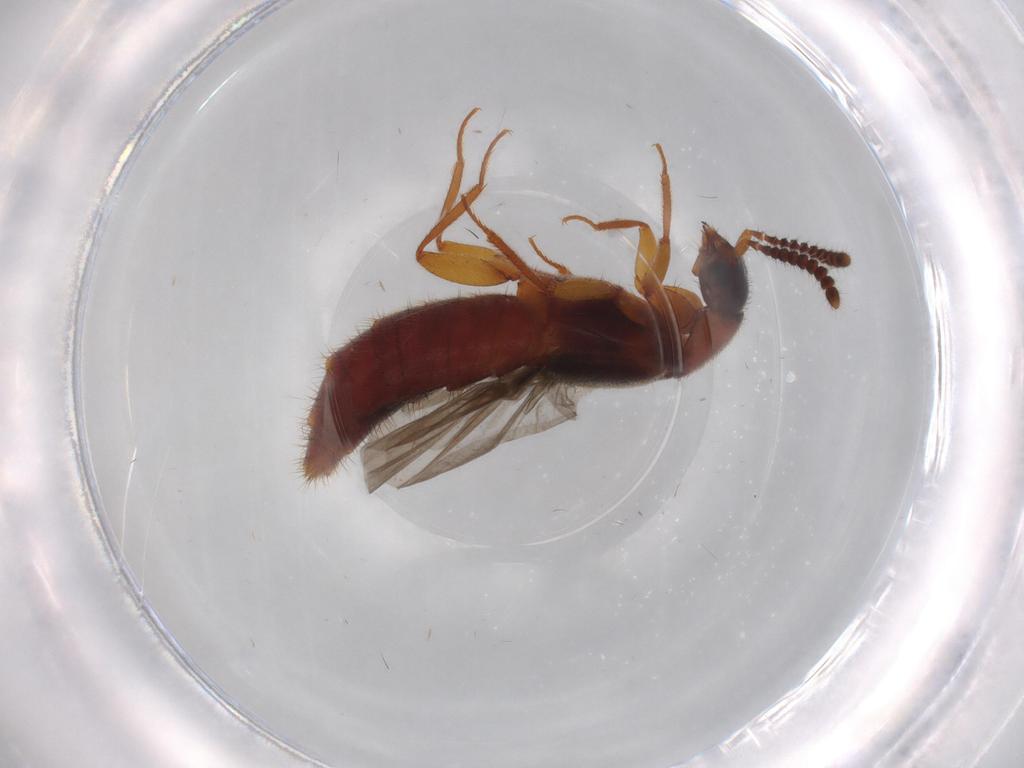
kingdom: Animalia
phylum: Arthropoda
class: Insecta
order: Coleoptera
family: Staphylinidae
